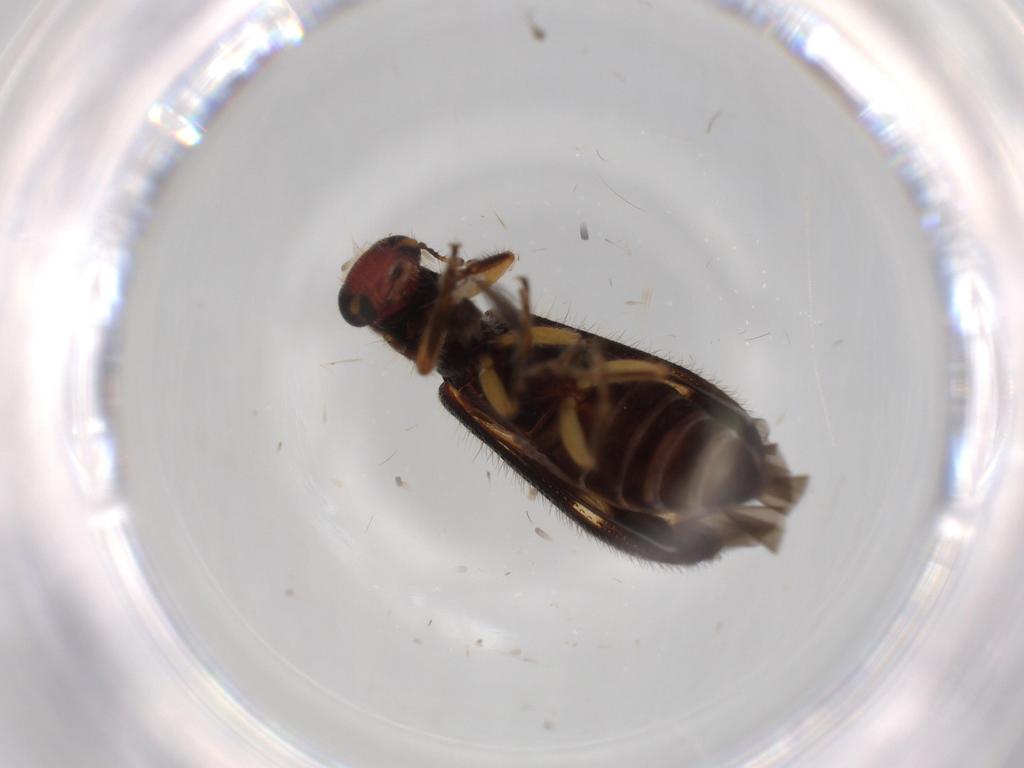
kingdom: Animalia
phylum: Arthropoda
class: Insecta
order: Coleoptera
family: Cleridae
